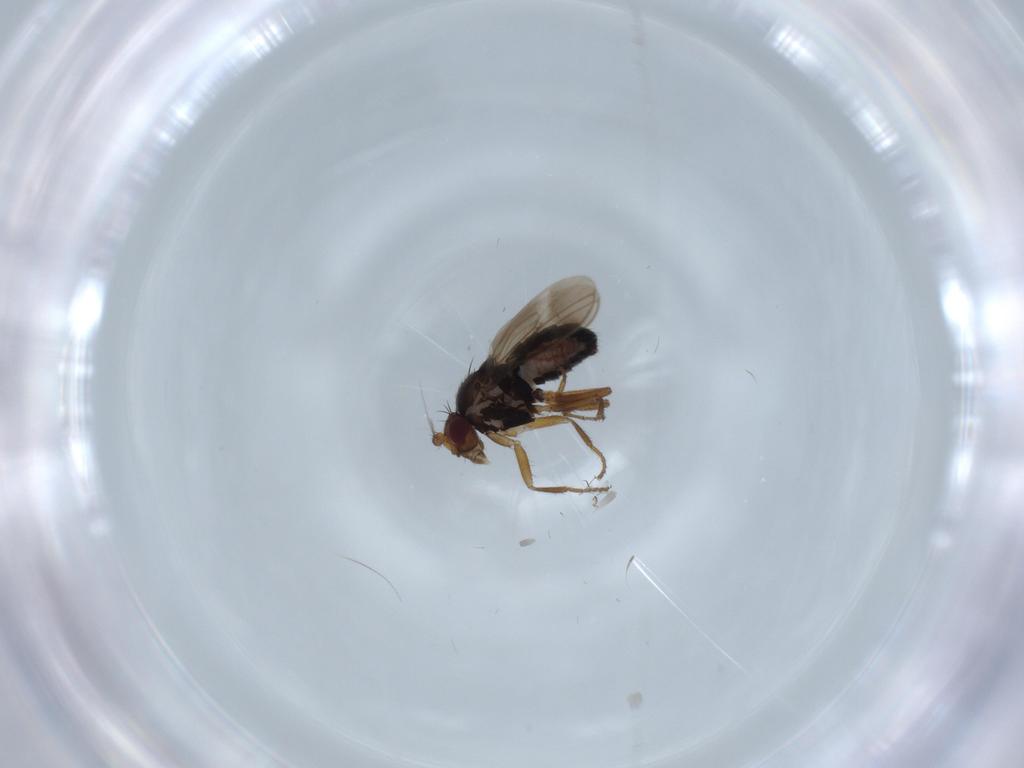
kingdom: Animalia
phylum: Arthropoda
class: Insecta
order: Diptera
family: Sphaeroceridae
